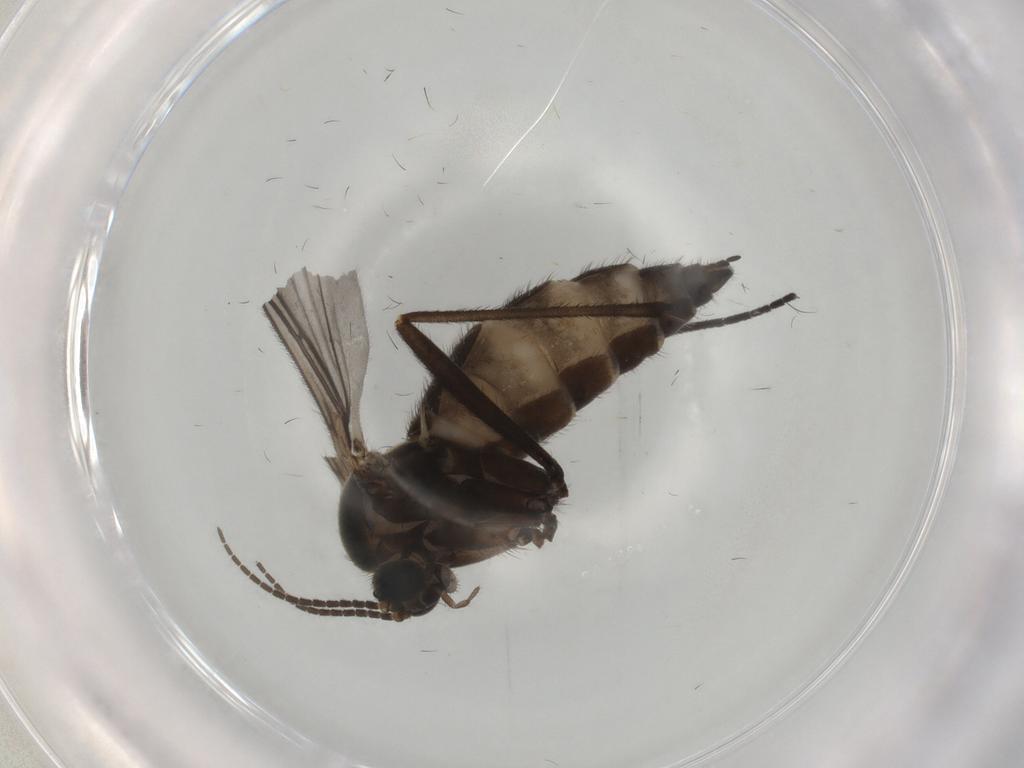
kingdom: Animalia
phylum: Arthropoda
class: Insecta
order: Diptera
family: Sciaridae
